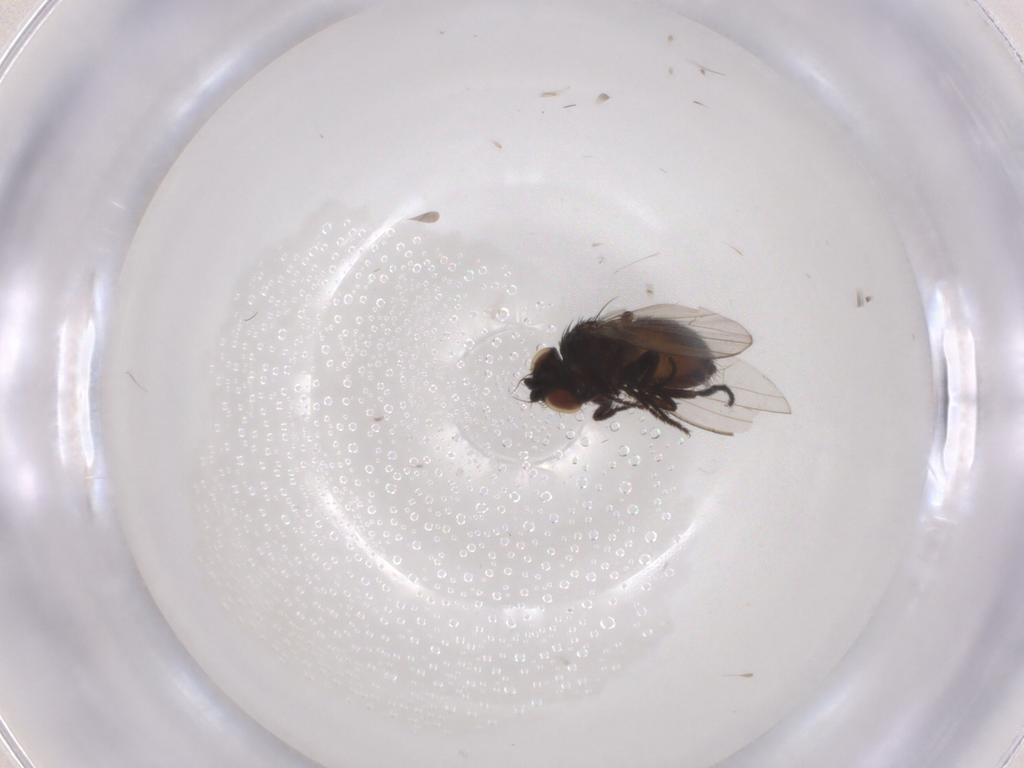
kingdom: Animalia
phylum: Arthropoda
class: Insecta
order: Diptera
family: Milichiidae
